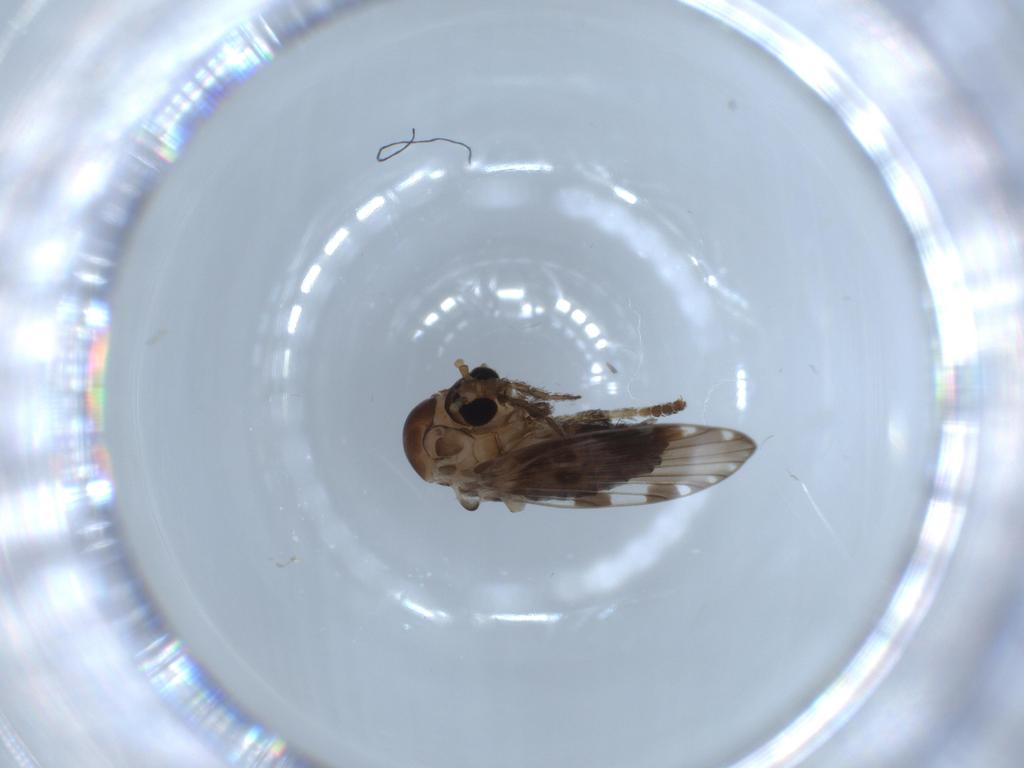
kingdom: Animalia
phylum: Arthropoda
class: Insecta
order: Diptera
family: Psychodidae
